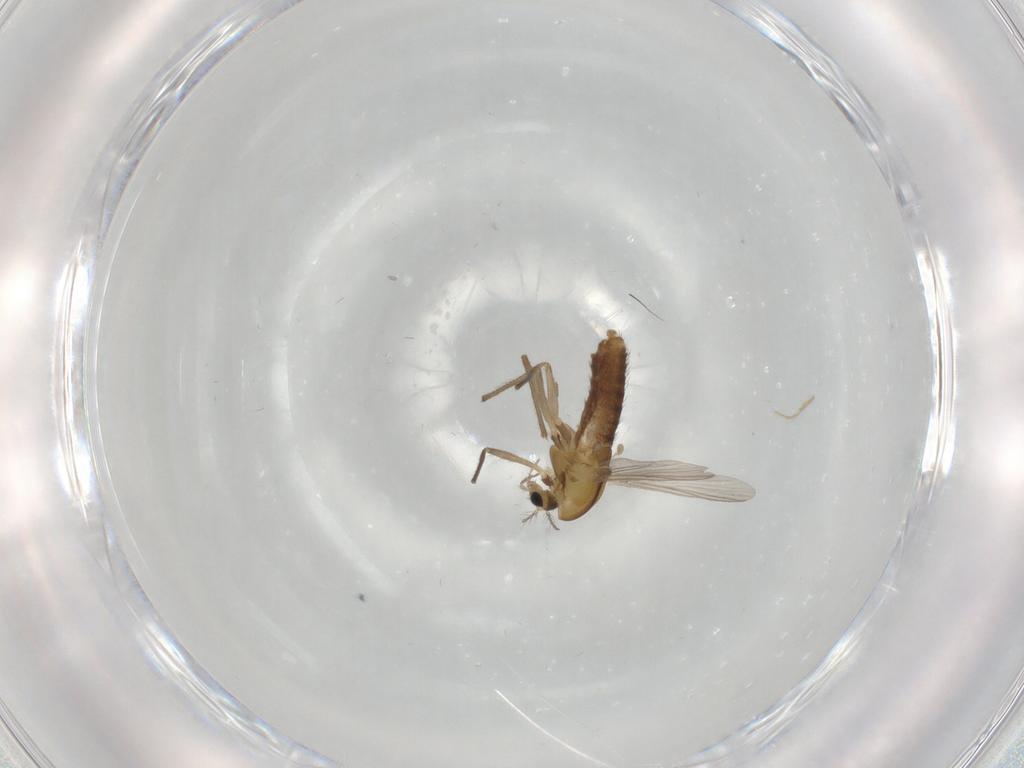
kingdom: Animalia
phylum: Arthropoda
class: Insecta
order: Diptera
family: Chironomidae
